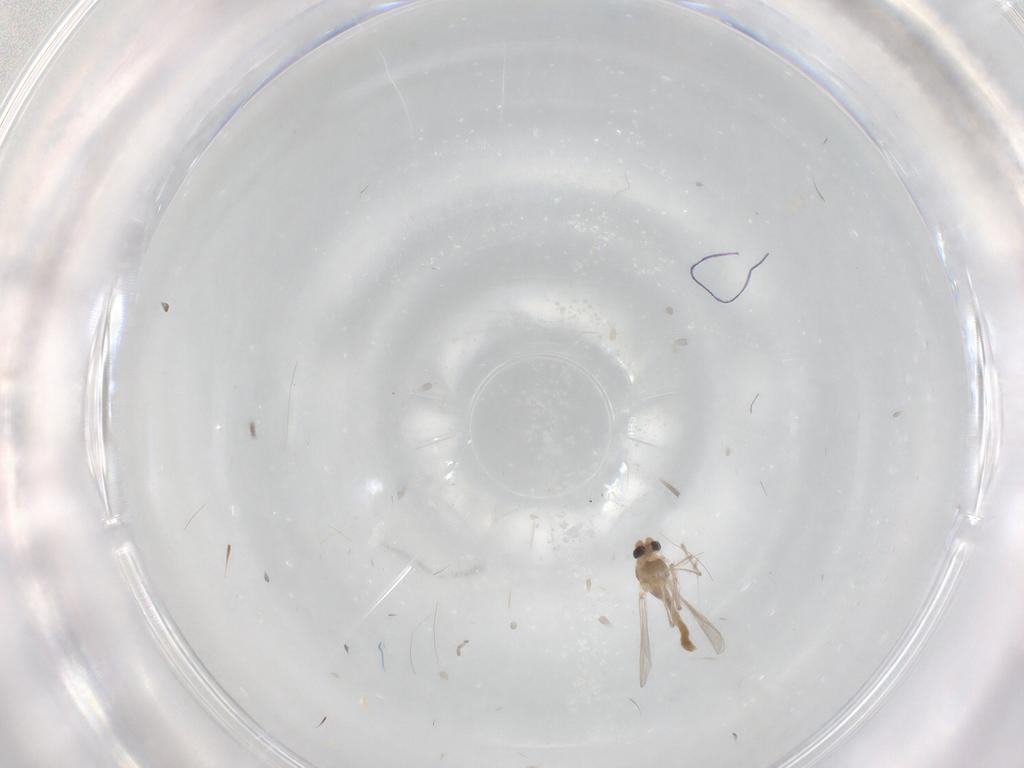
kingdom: Animalia
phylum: Arthropoda
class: Insecta
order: Diptera
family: Chironomidae
